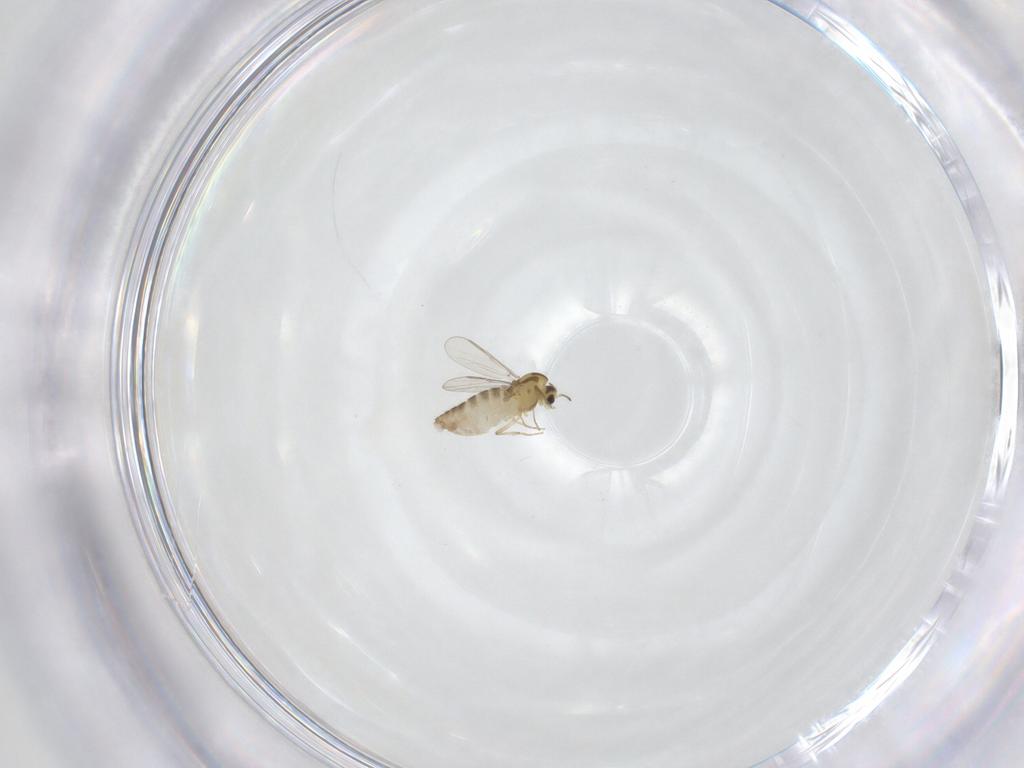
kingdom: Animalia
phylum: Arthropoda
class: Insecta
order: Diptera
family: Chironomidae
